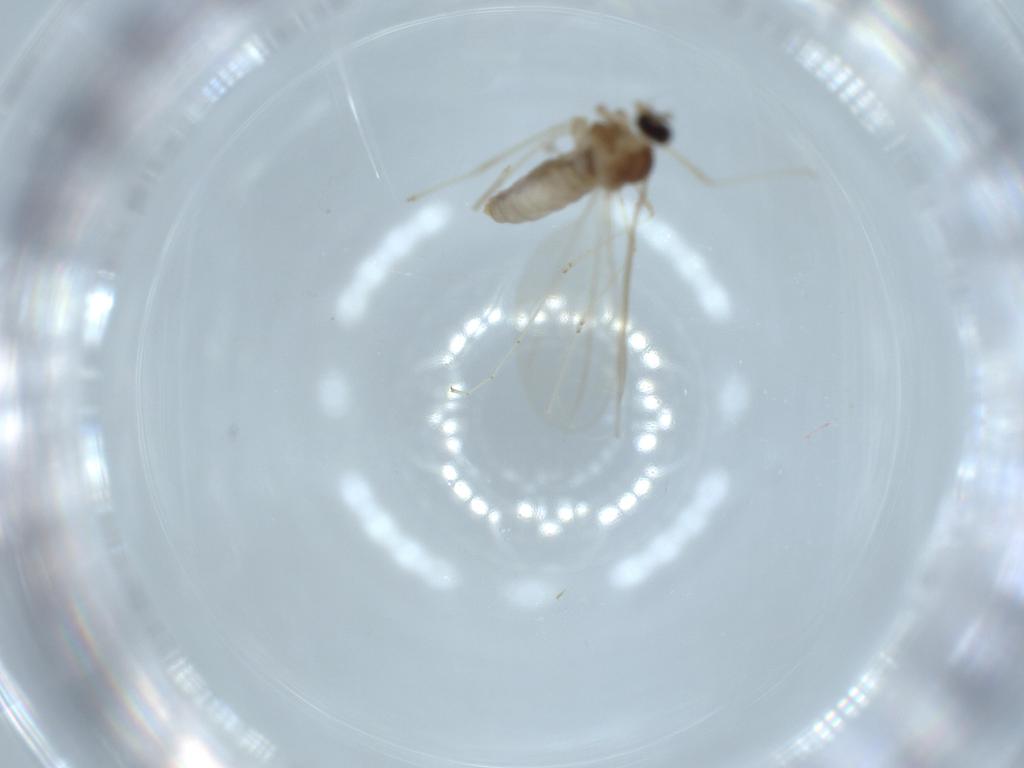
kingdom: Animalia
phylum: Arthropoda
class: Insecta
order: Diptera
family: Cecidomyiidae
